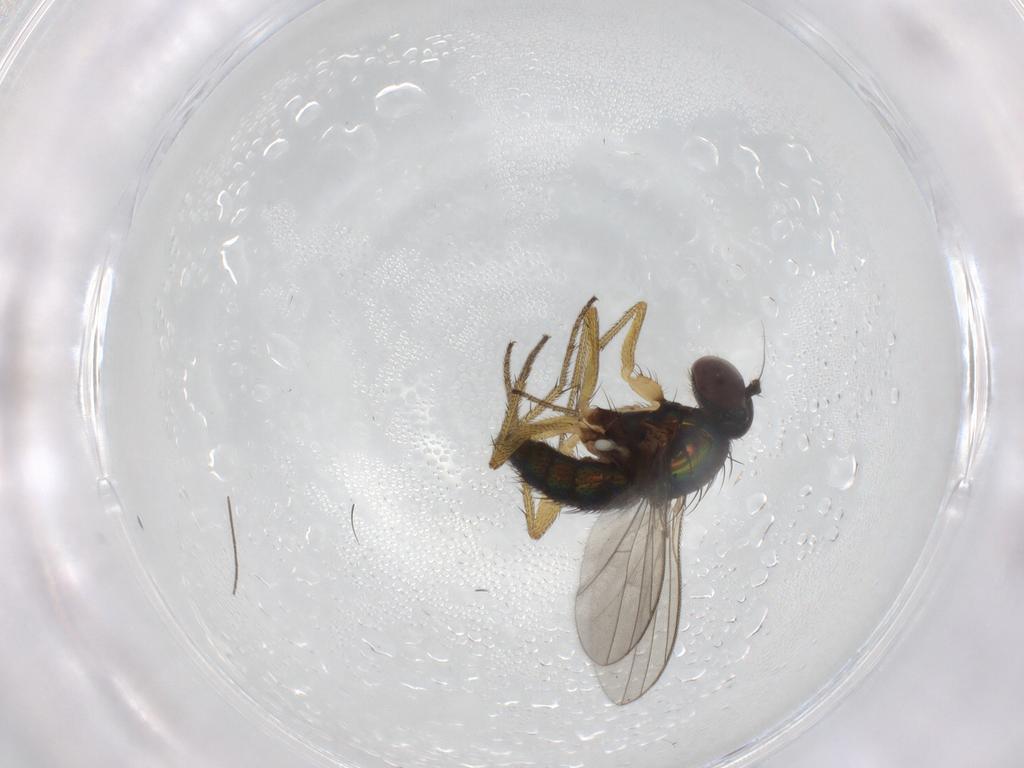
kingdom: Animalia
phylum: Arthropoda
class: Insecta
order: Diptera
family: Dolichopodidae
